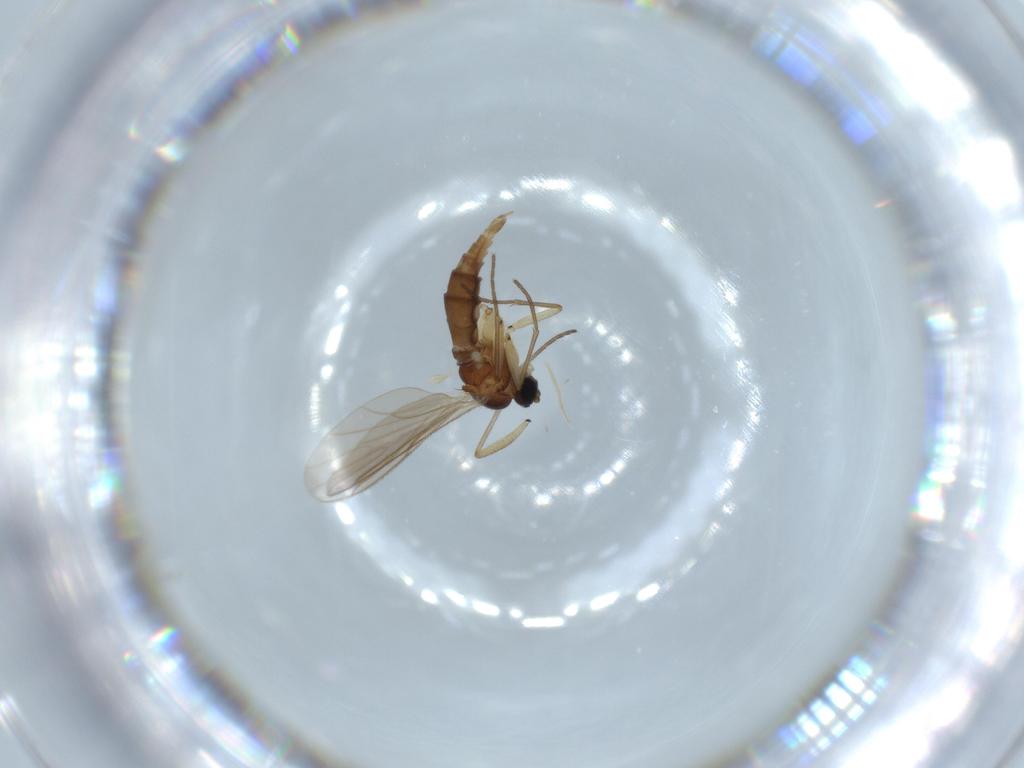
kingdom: Animalia
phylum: Arthropoda
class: Insecta
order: Diptera
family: Sciaridae
